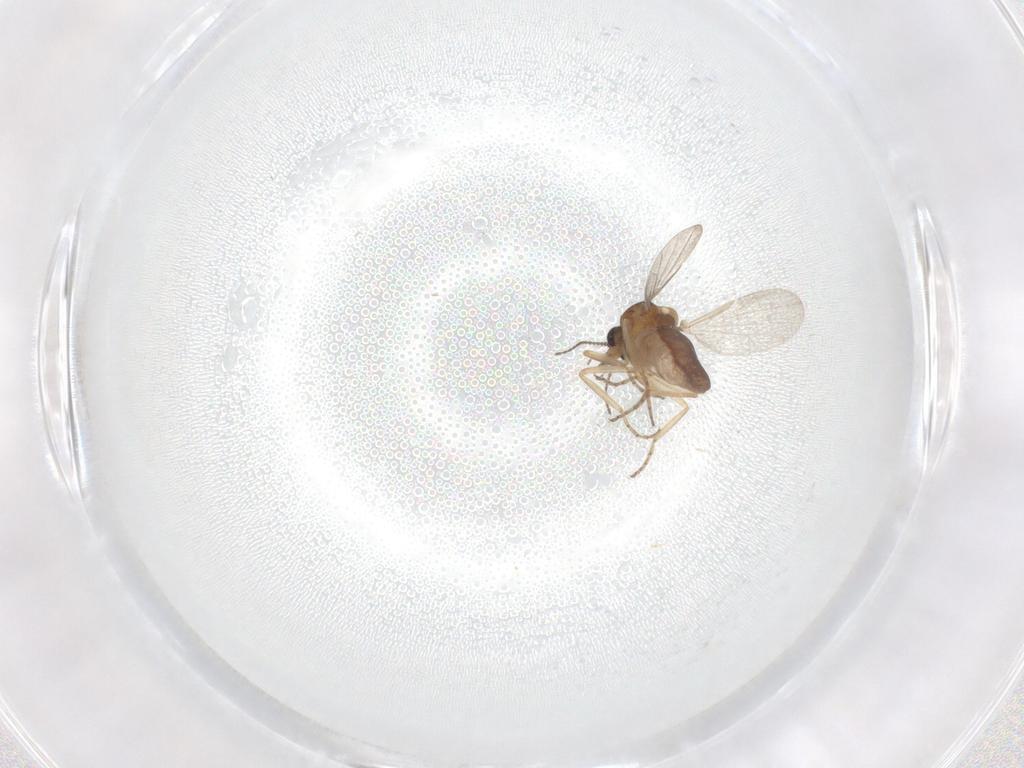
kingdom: Animalia
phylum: Arthropoda
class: Insecta
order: Diptera
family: Ceratopogonidae
